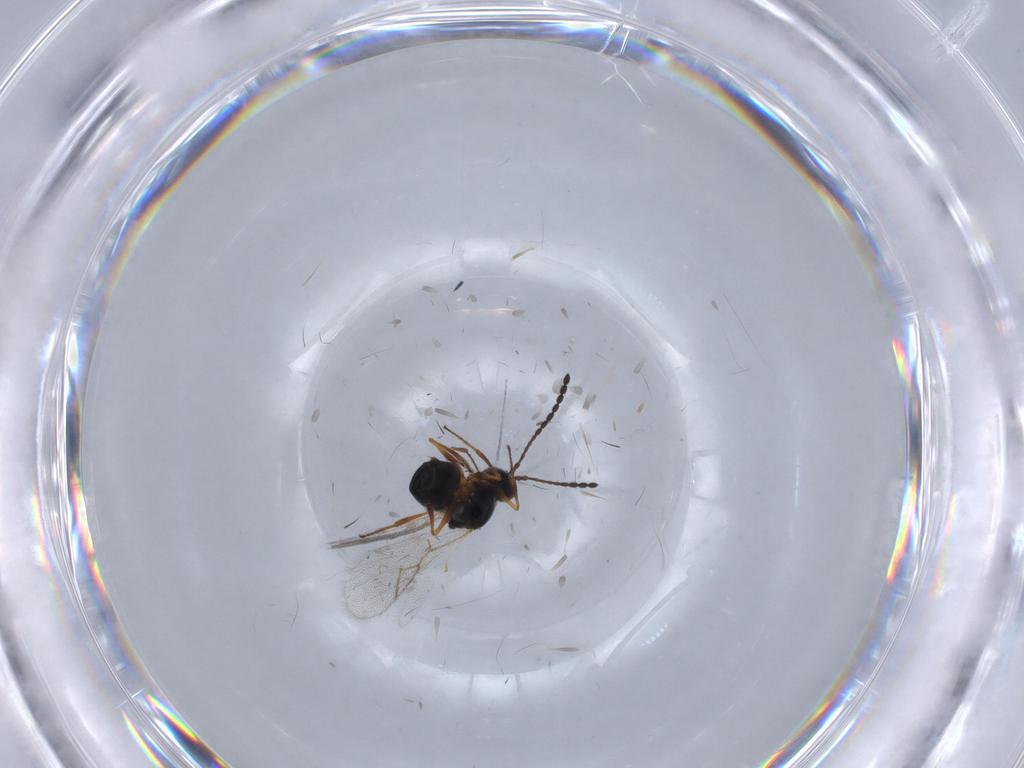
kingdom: Animalia
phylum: Arthropoda
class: Insecta
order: Hymenoptera
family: Figitidae
